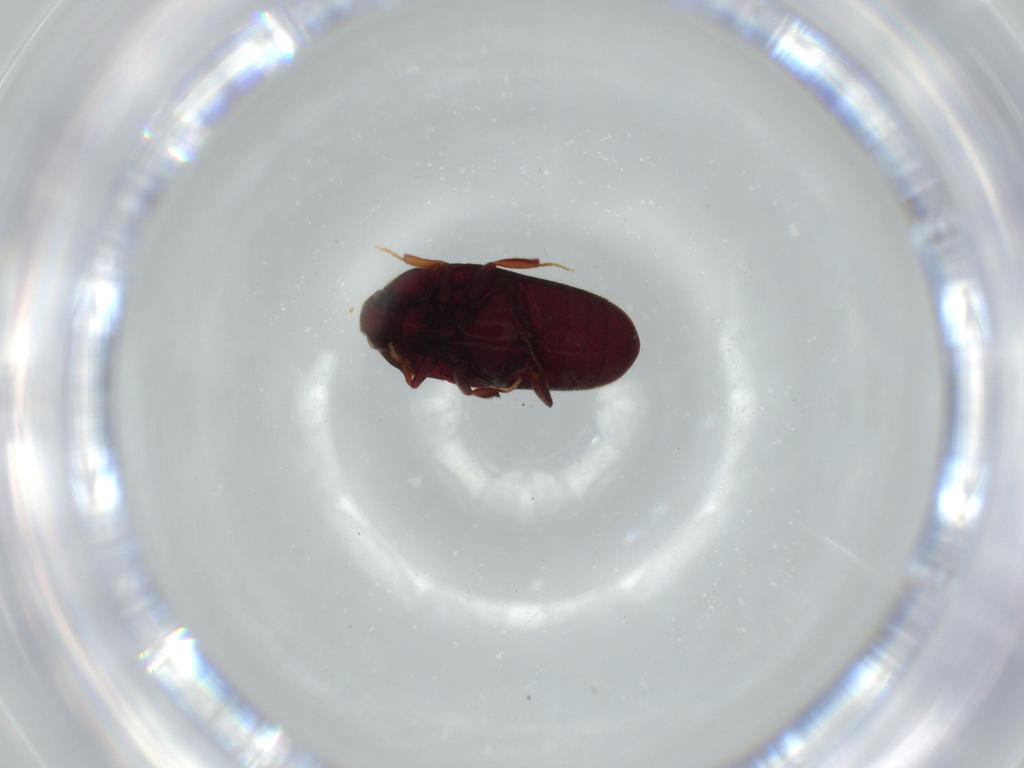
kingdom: Animalia
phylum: Arthropoda
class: Insecta
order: Coleoptera
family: Throscidae
